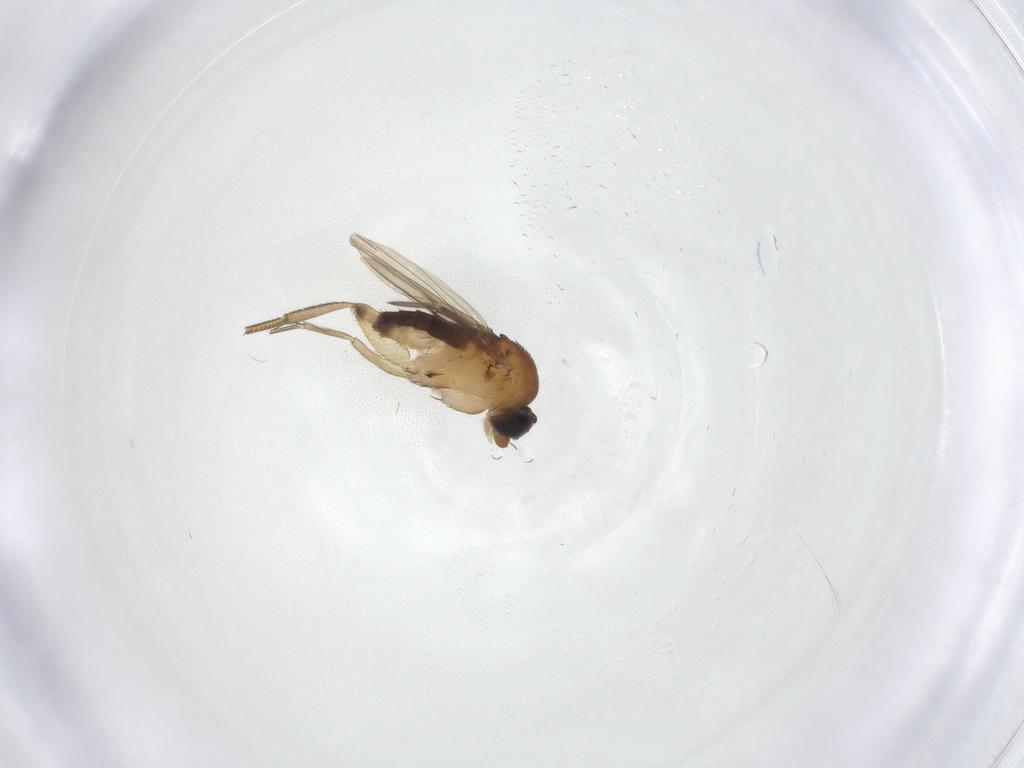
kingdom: Animalia
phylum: Arthropoda
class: Insecta
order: Diptera
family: Phoridae
